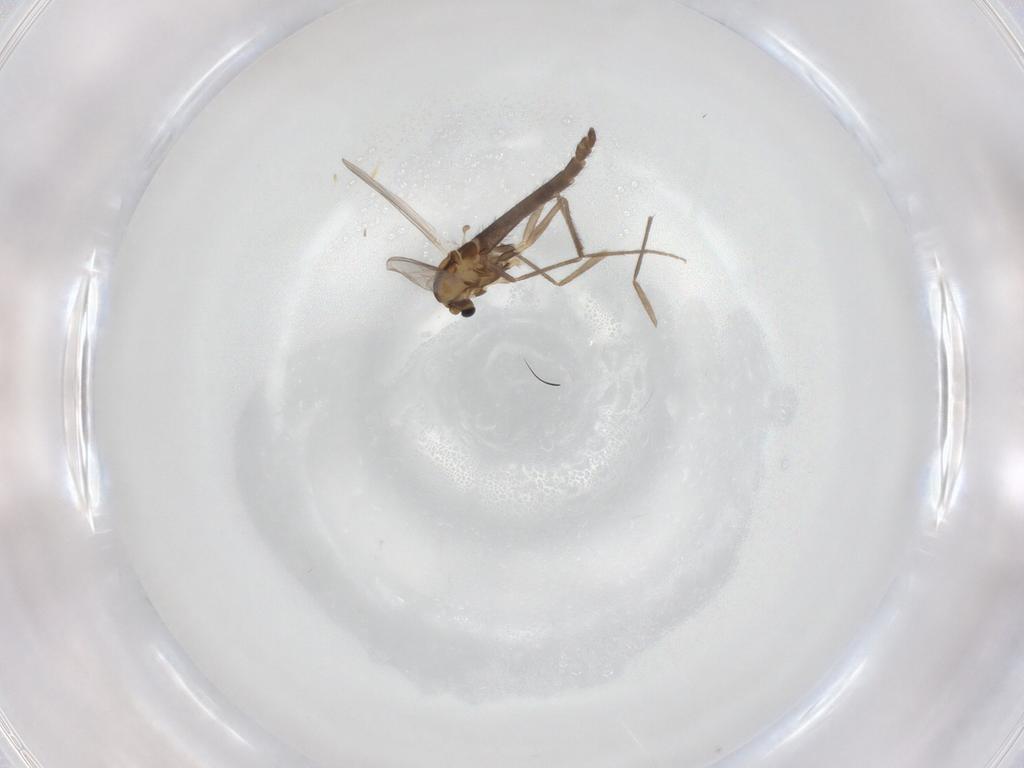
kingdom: Animalia
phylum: Arthropoda
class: Insecta
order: Diptera
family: Chironomidae
